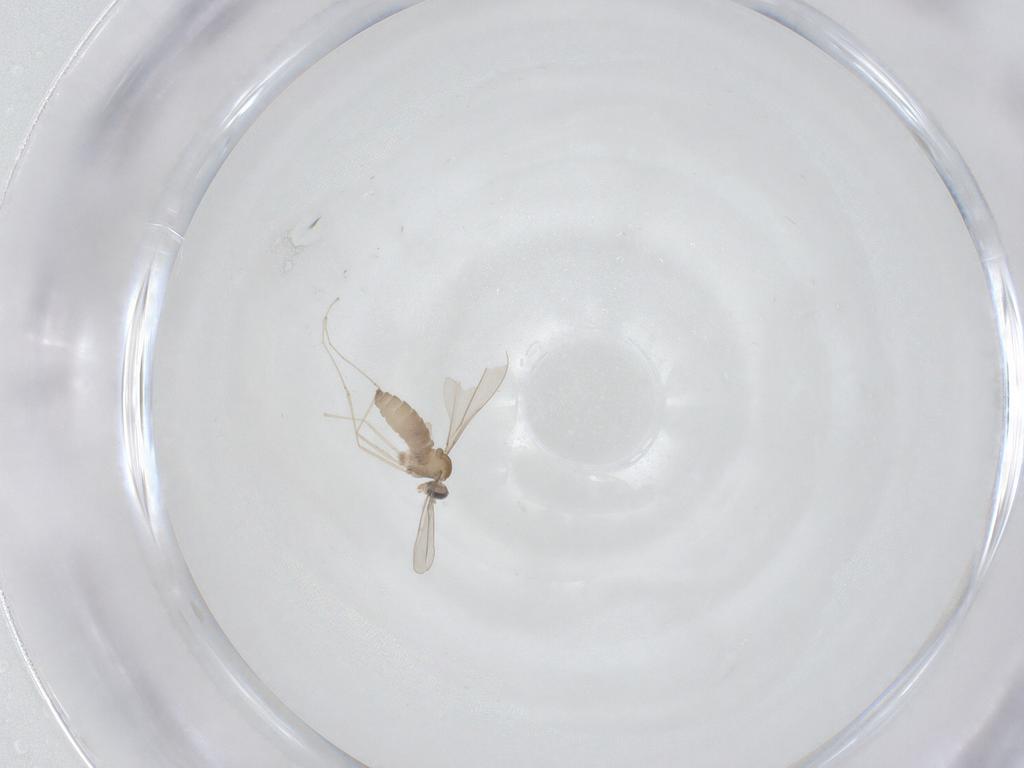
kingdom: Animalia
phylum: Arthropoda
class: Insecta
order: Diptera
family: Cecidomyiidae
